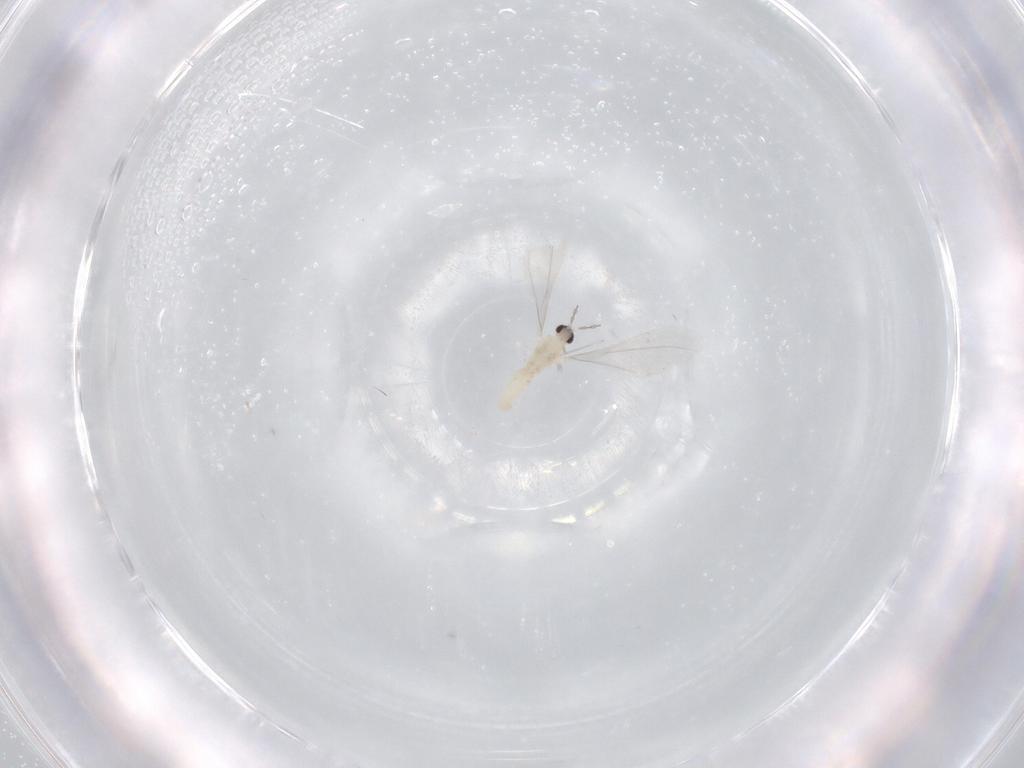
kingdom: Animalia
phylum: Arthropoda
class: Insecta
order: Diptera
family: Cecidomyiidae
